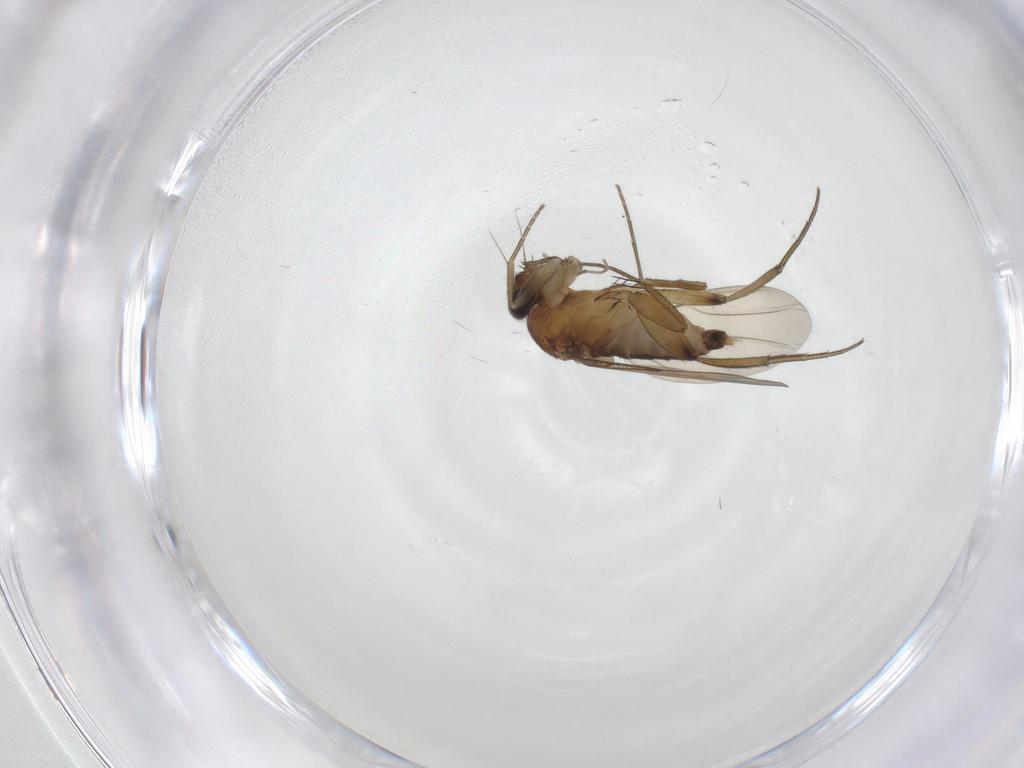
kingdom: Animalia
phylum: Arthropoda
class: Insecta
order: Diptera
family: Phoridae
